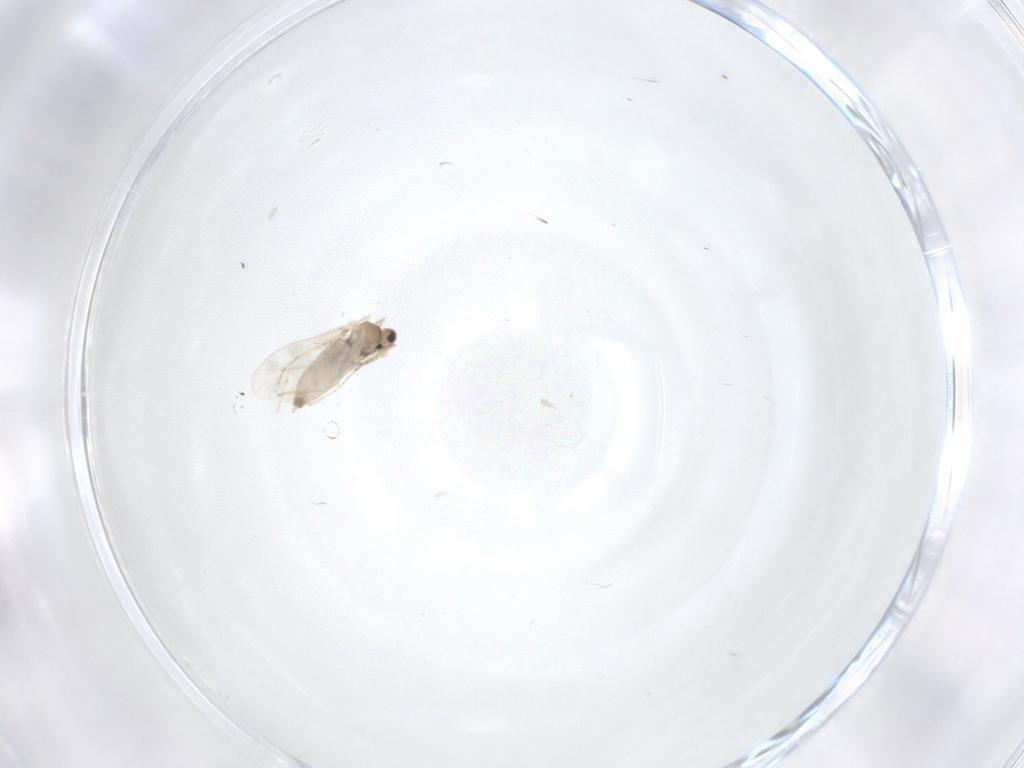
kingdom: Animalia
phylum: Arthropoda
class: Insecta
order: Diptera
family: Cecidomyiidae
